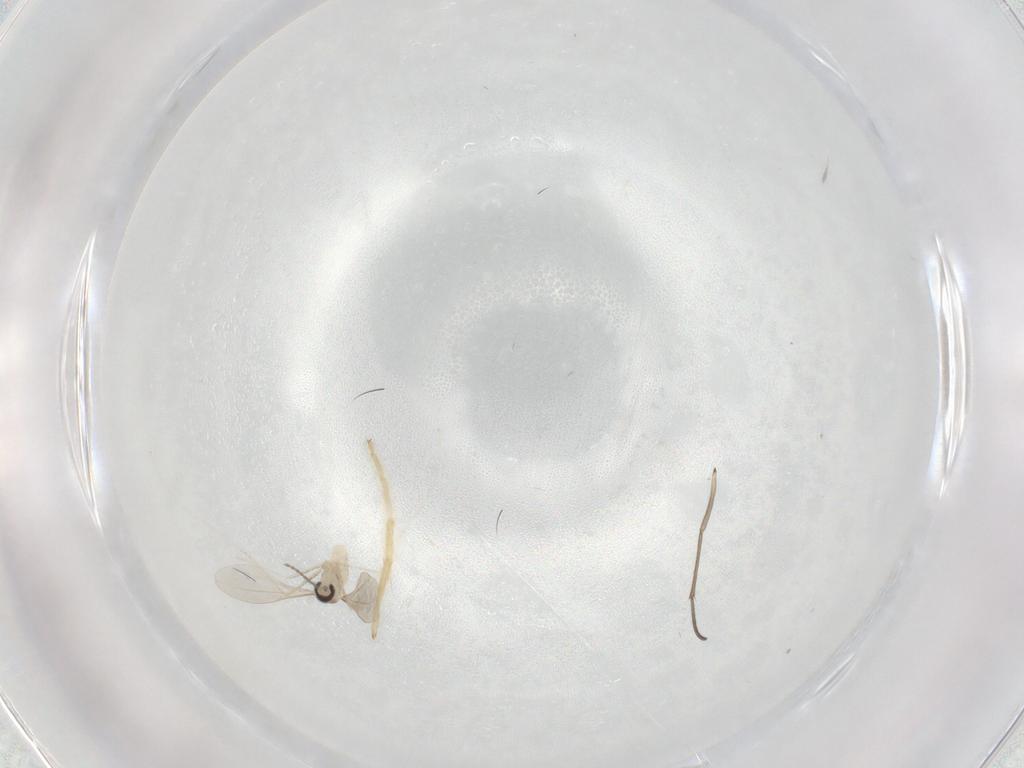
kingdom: Animalia
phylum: Arthropoda
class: Insecta
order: Diptera
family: Sciaridae
